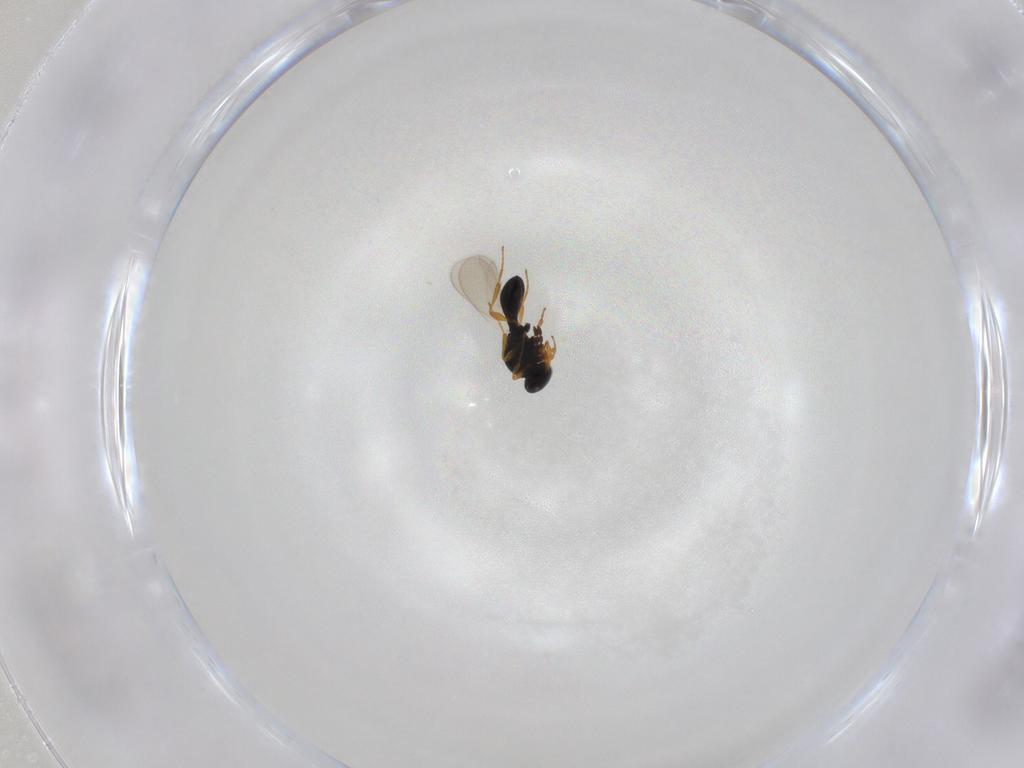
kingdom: Animalia
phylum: Arthropoda
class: Insecta
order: Hymenoptera
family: Platygastridae
